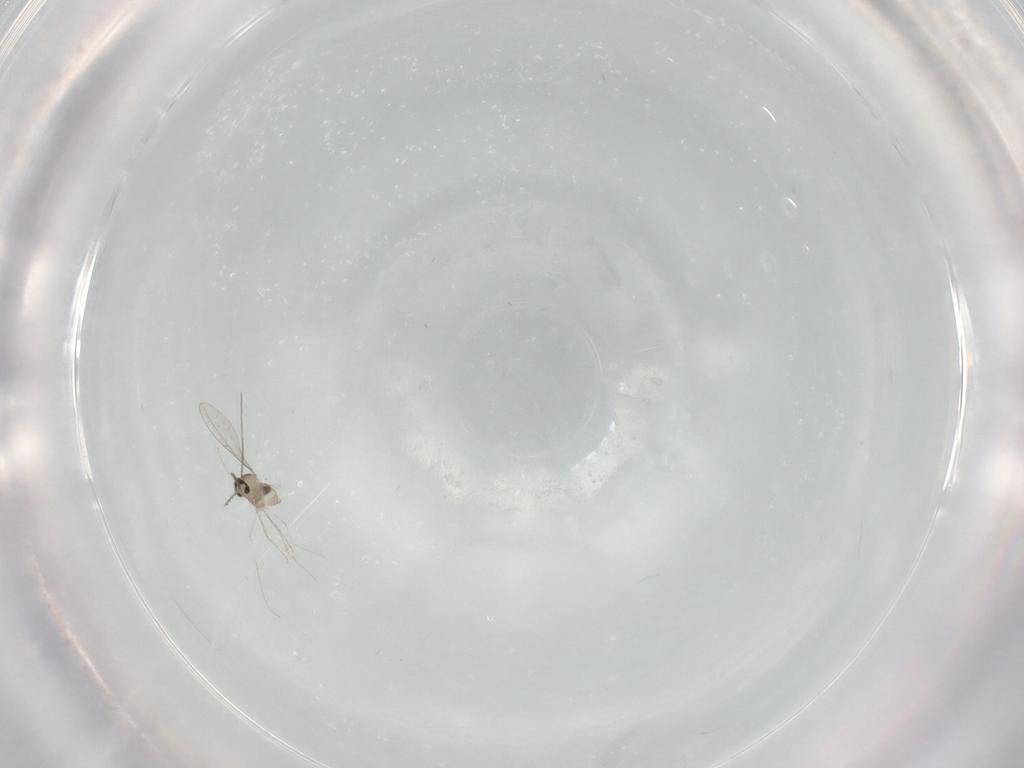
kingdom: Animalia
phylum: Arthropoda
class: Insecta
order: Diptera
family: Cecidomyiidae
